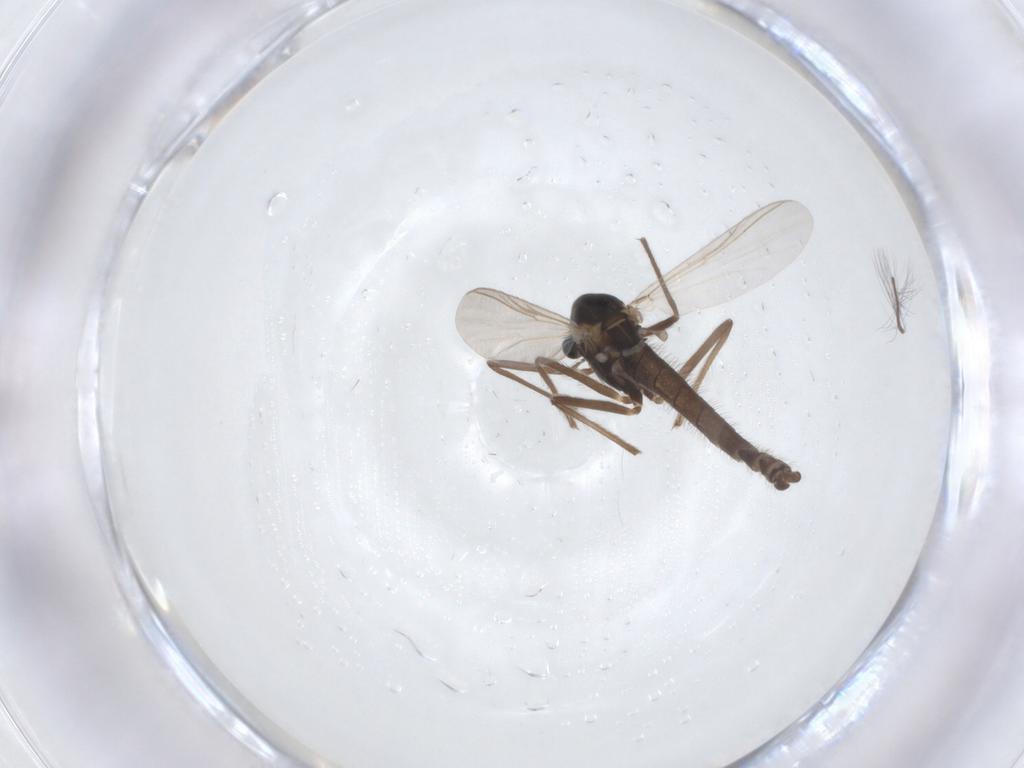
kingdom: Animalia
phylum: Arthropoda
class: Insecta
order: Diptera
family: Chironomidae
